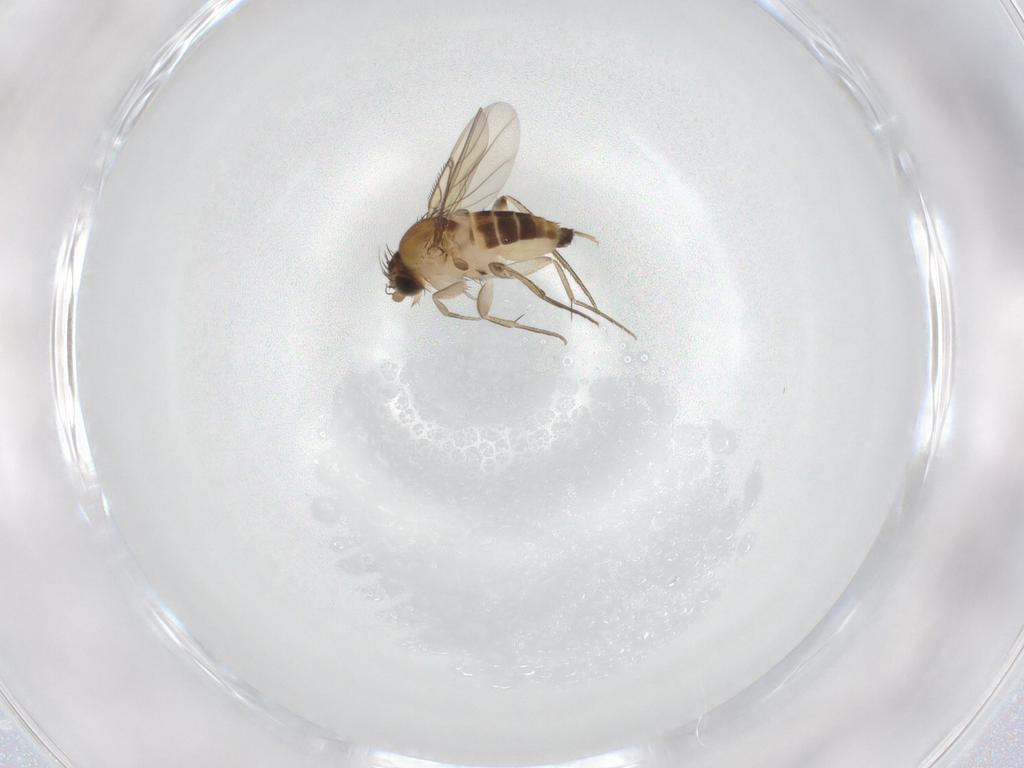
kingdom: Animalia
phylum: Arthropoda
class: Insecta
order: Diptera
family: Phoridae
